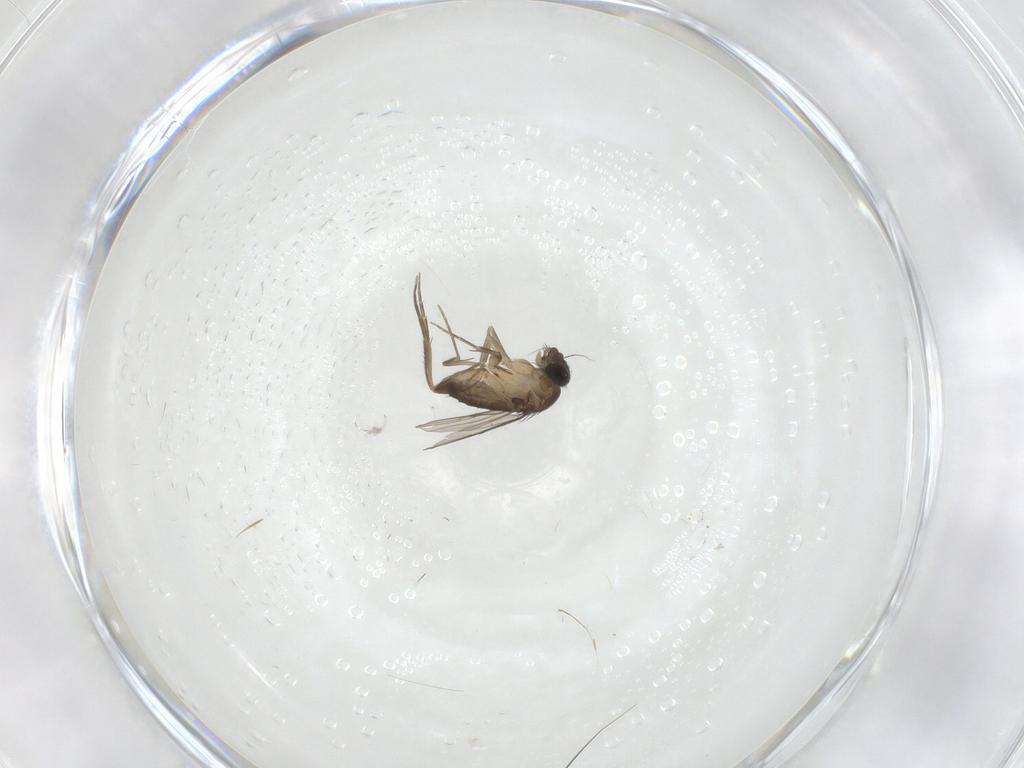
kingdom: Animalia
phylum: Arthropoda
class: Insecta
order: Diptera
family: Phoridae
